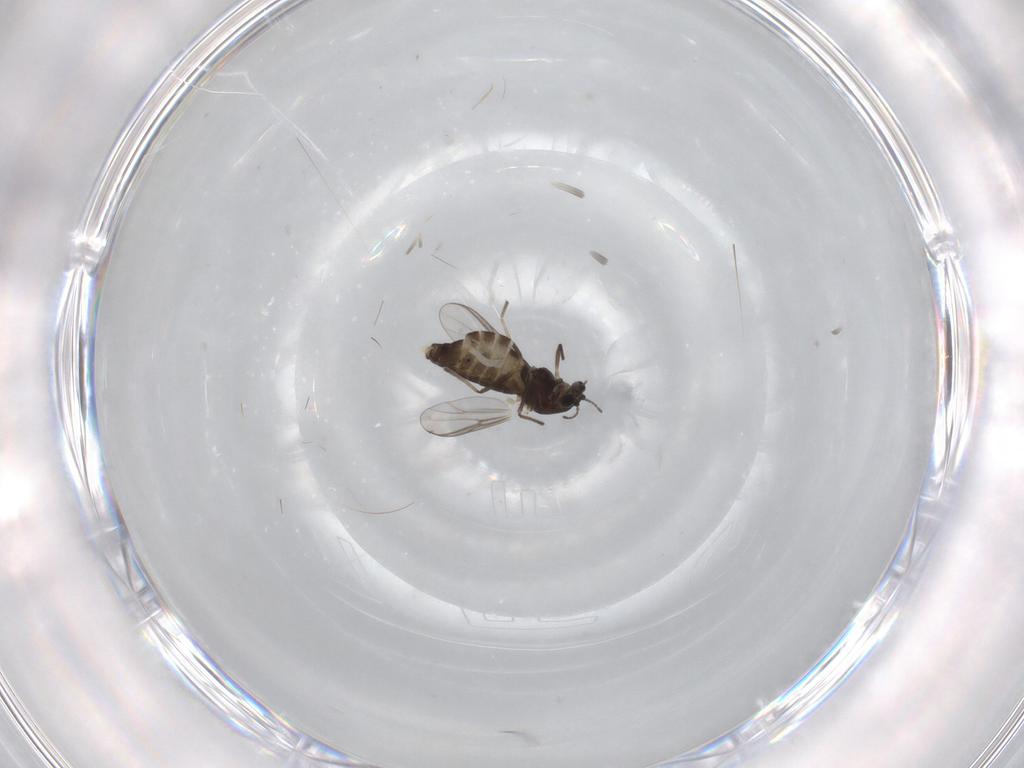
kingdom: Animalia
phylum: Arthropoda
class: Insecta
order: Diptera
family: Chironomidae
